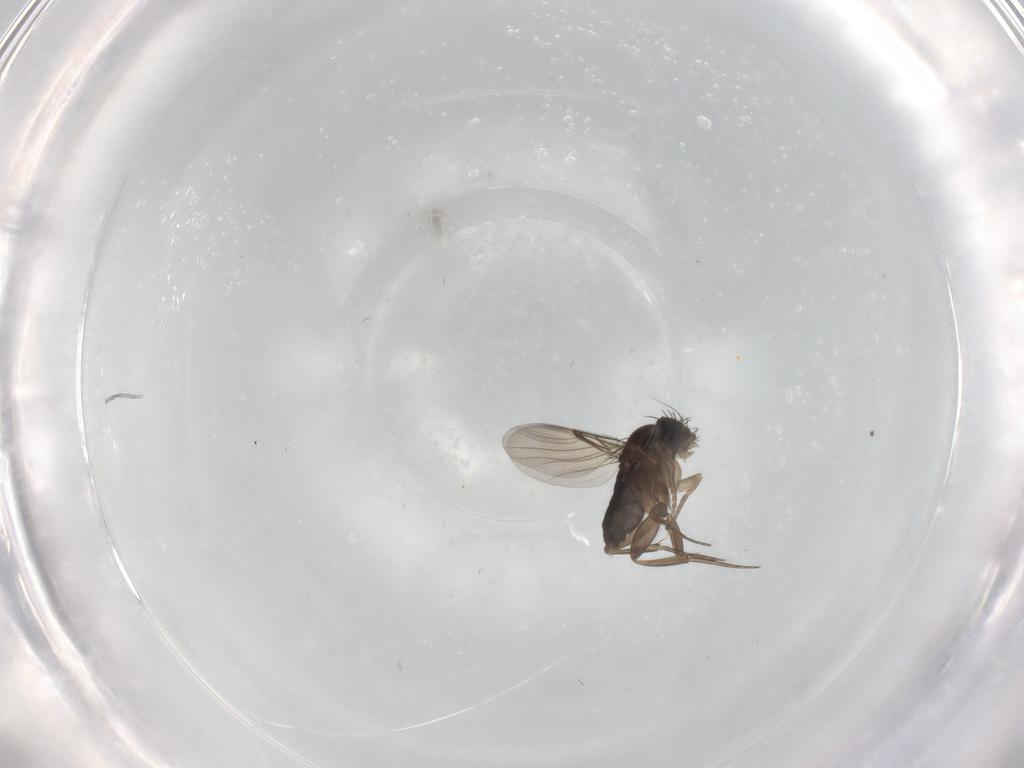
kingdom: Animalia
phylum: Arthropoda
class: Insecta
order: Diptera
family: Phoridae
